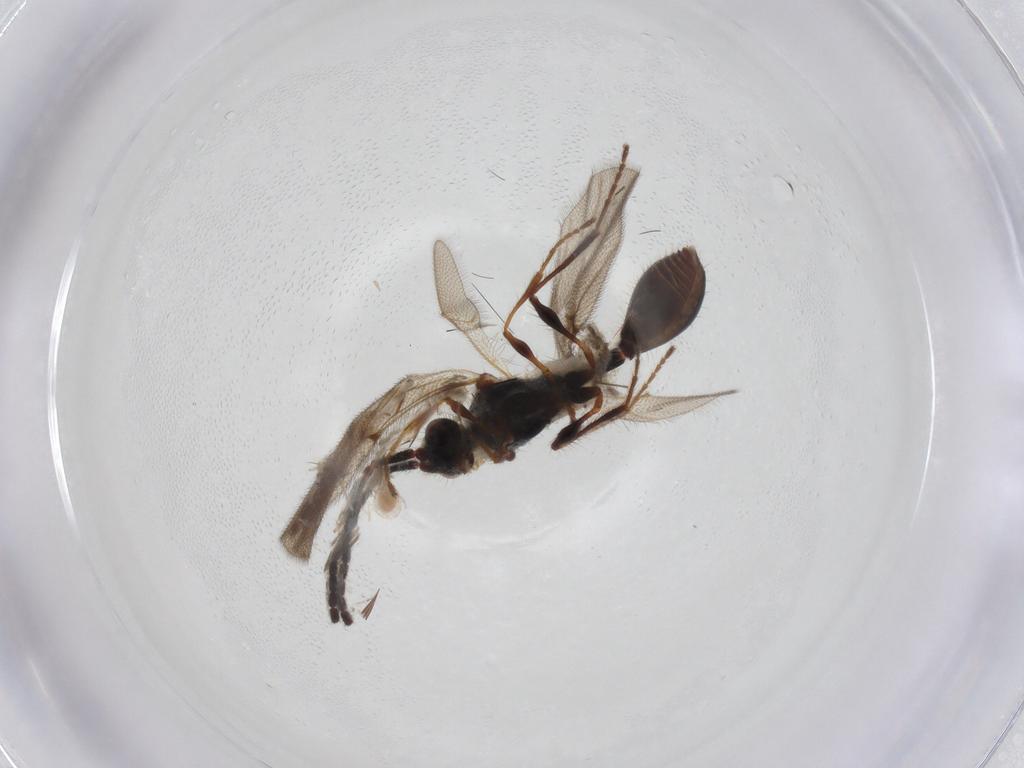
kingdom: Animalia
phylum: Arthropoda
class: Insecta
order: Hymenoptera
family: Diapriidae
